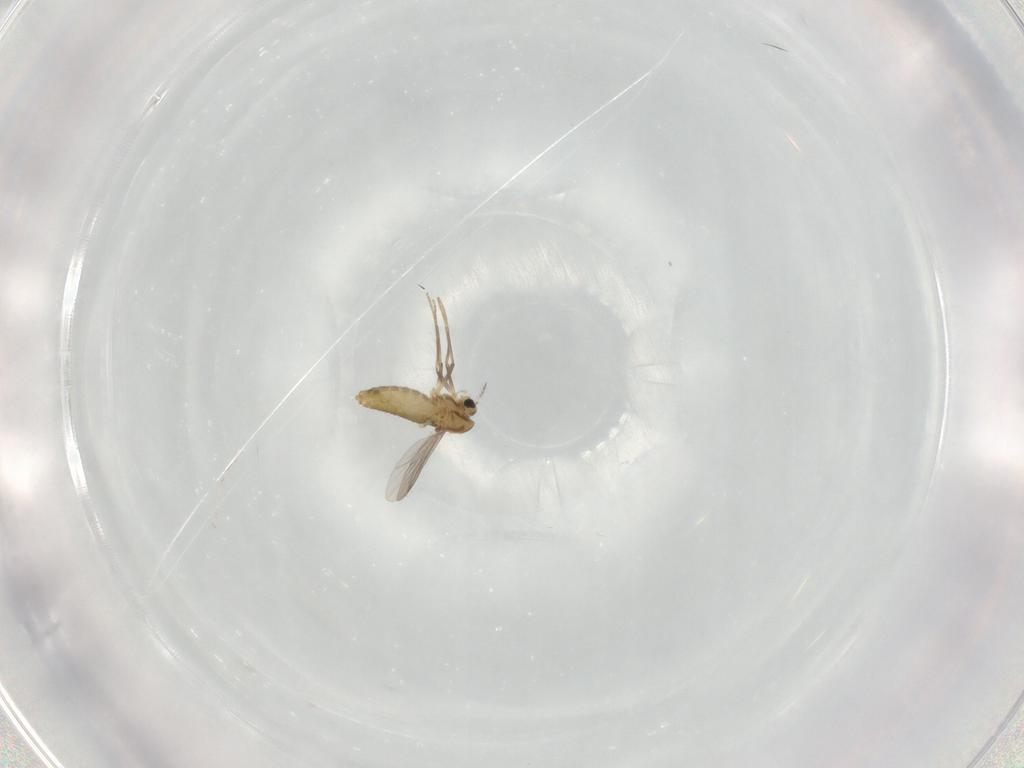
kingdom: Animalia
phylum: Arthropoda
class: Insecta
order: Diptera
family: Chironomidae
